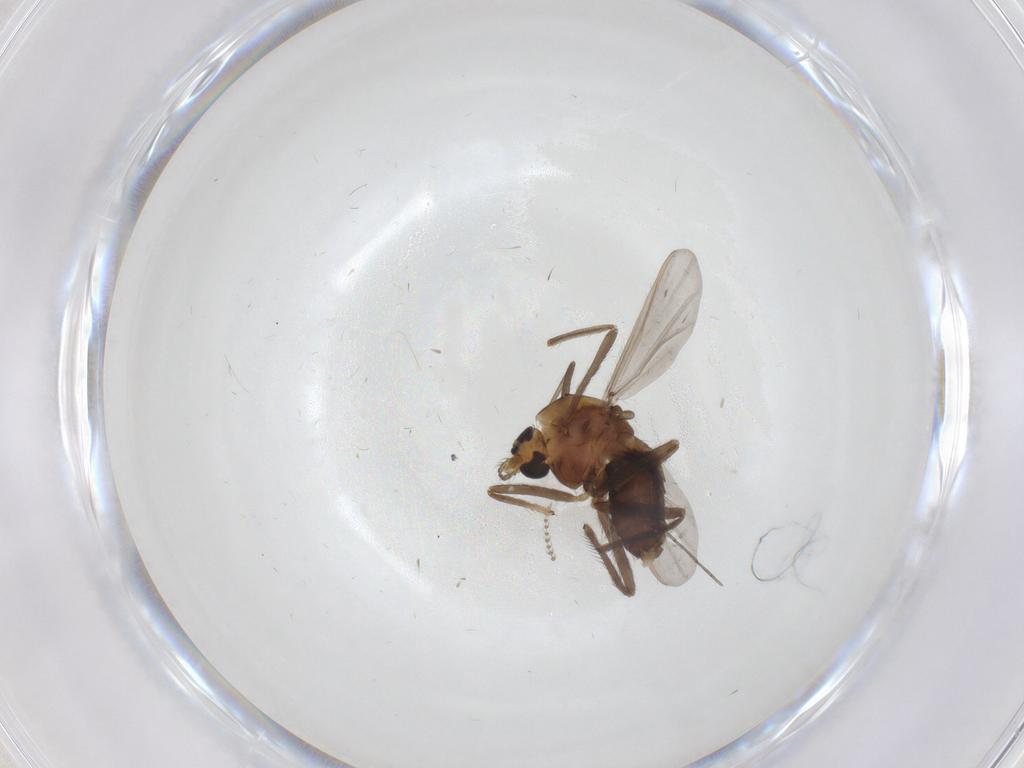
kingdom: Animalia
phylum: Arthropoda
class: Insecta
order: Diptera
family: Chironomidae
